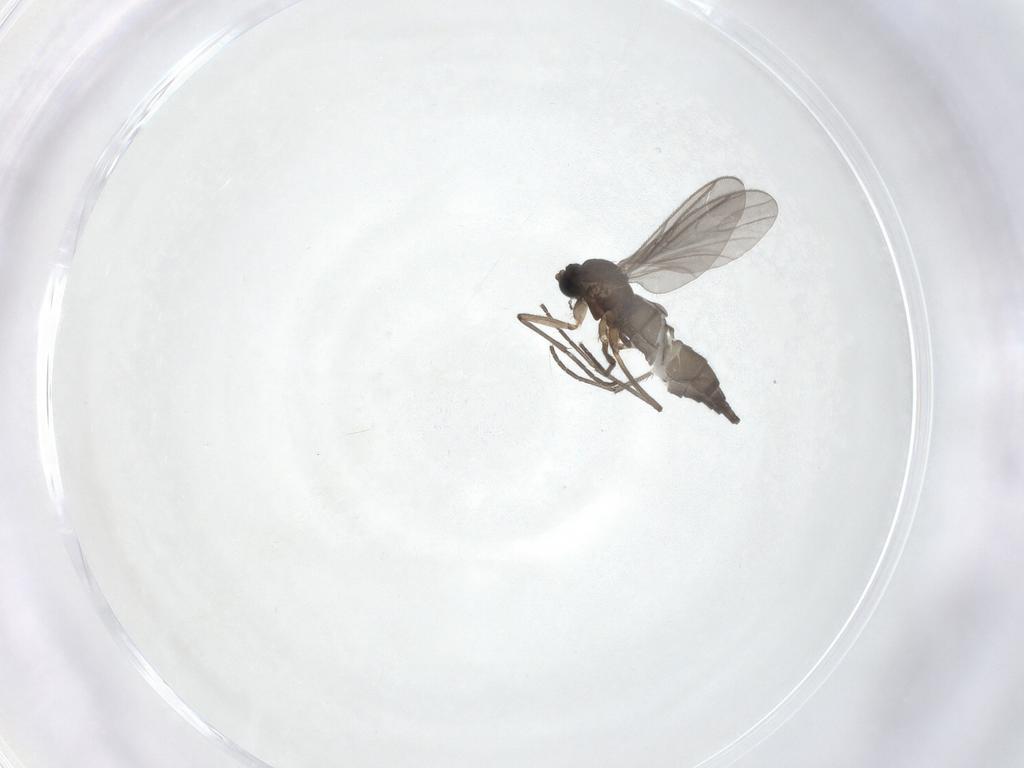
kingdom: Animalia
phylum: Arthropoda
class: Insecta
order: Diptera
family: Sciaridae
